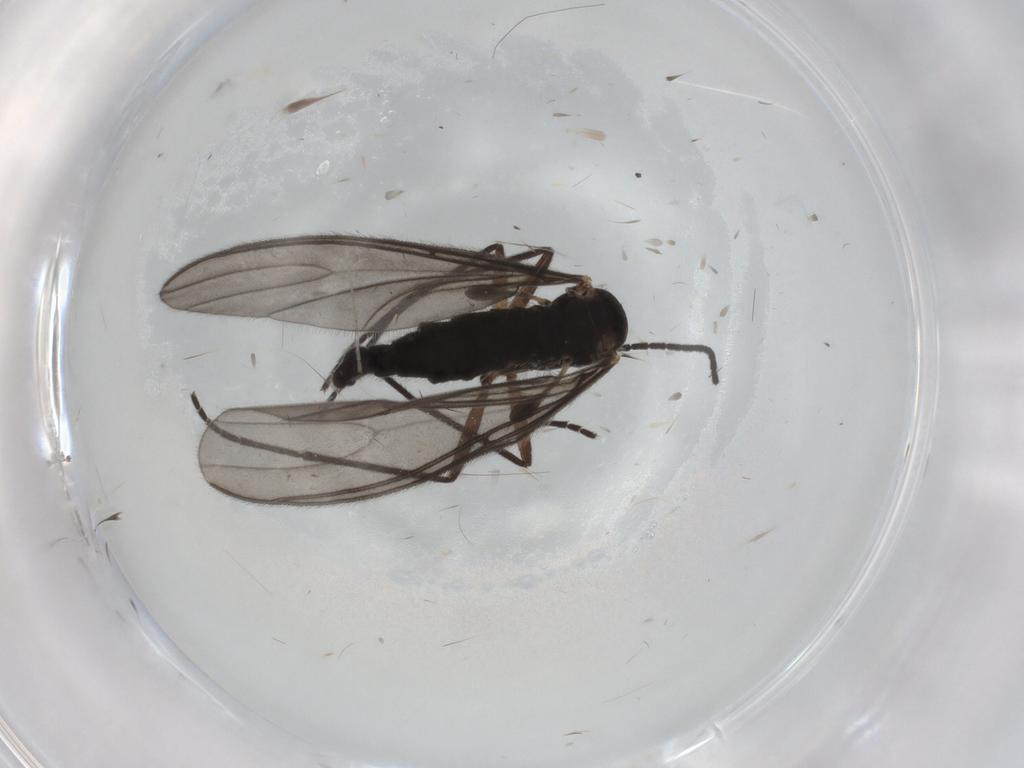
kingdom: Animalia
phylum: Arthropoda
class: Insecta
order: Diptera
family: Sciaridae
